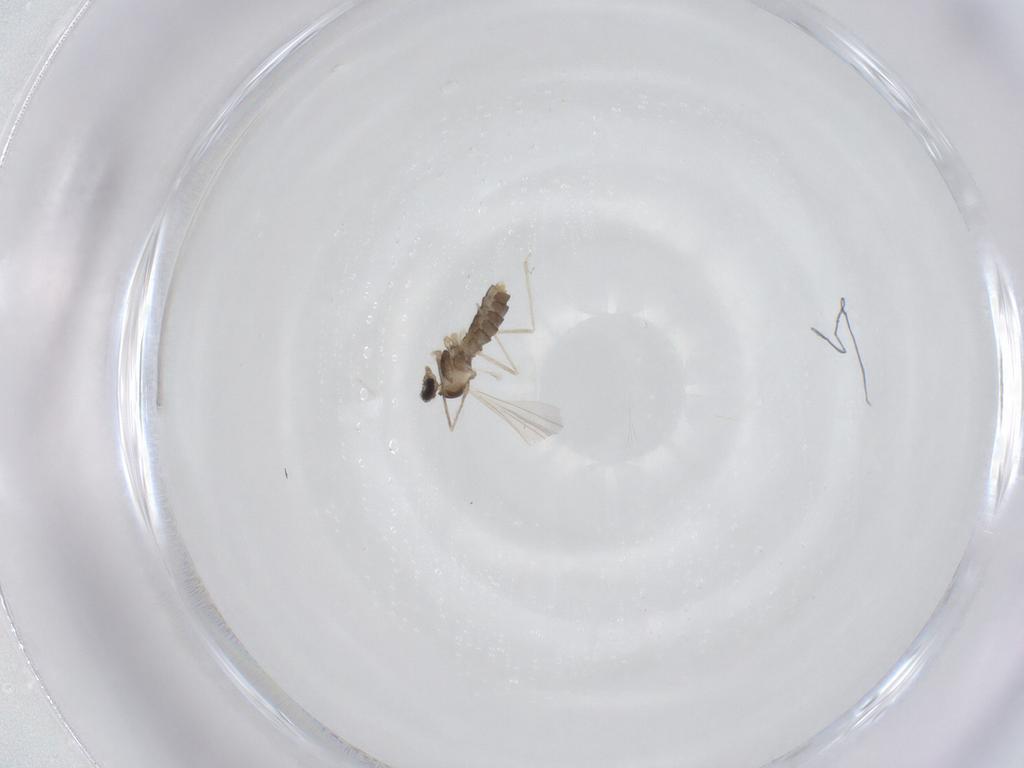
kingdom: Animalia
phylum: Arthropoda
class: Insecta
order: Diptera
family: Cecidomyiidae
